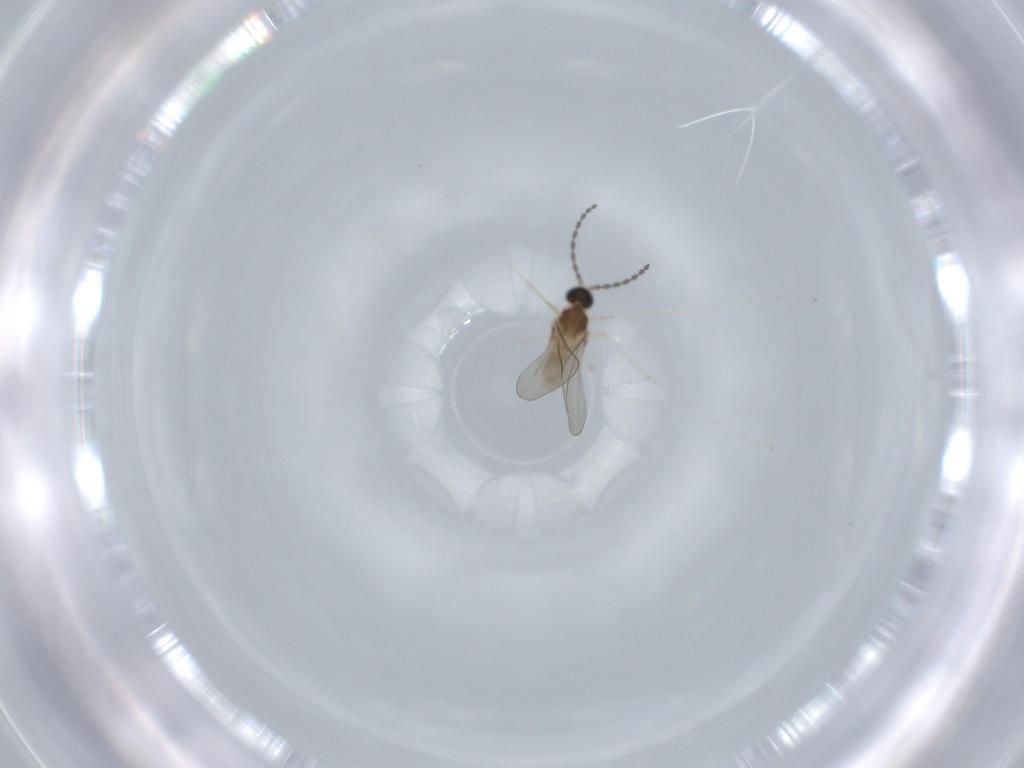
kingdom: Animalia
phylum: Arthropoda
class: Insecta
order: Diptera
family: Cecidomyiidae
